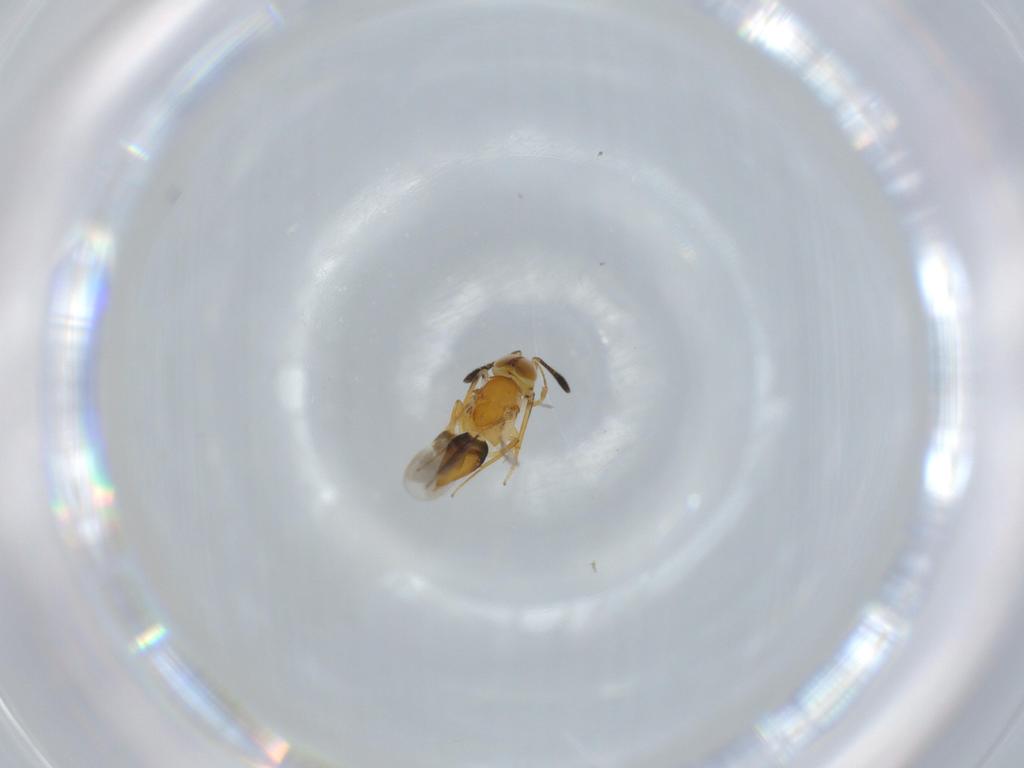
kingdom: Animalia
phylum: Arthropoda
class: Insecta
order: Hymenoptera
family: Encyrtidae
